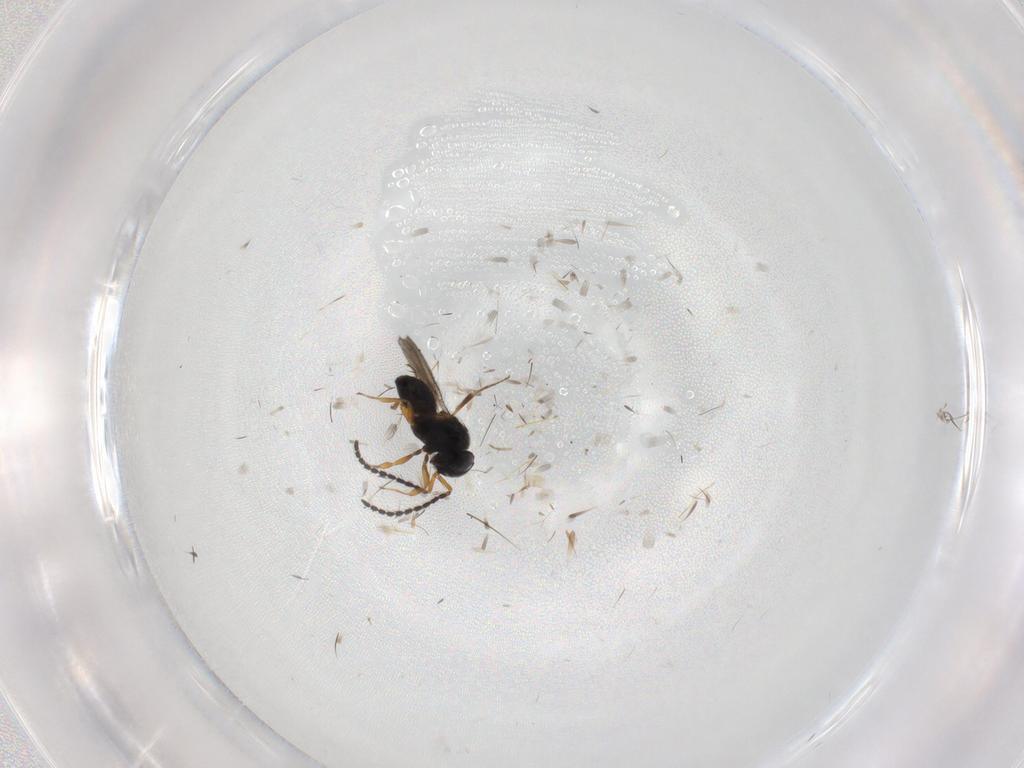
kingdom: Animalia
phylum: Arthropoda
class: Insecta
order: Hymenoptera
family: Scelionidae
